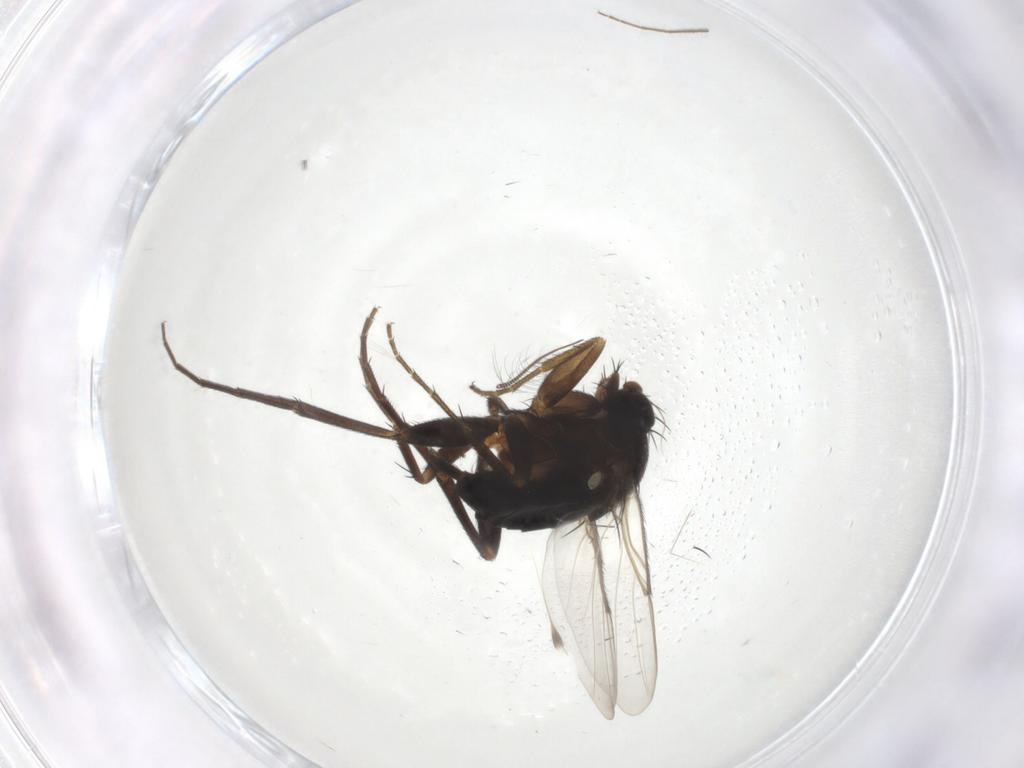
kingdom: Animalia
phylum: Arthropoda
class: Insecta
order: Diptera
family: Phoridae
